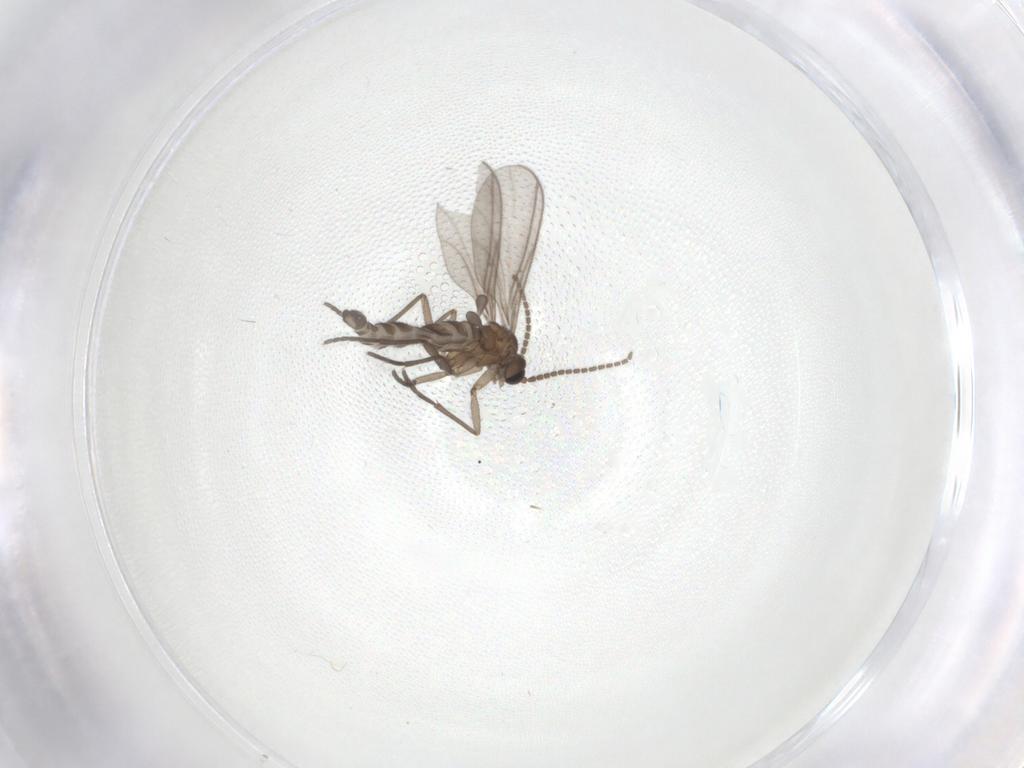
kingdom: Animalia
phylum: Arthropoda
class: Insecta
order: Diptera
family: Sciaridae
